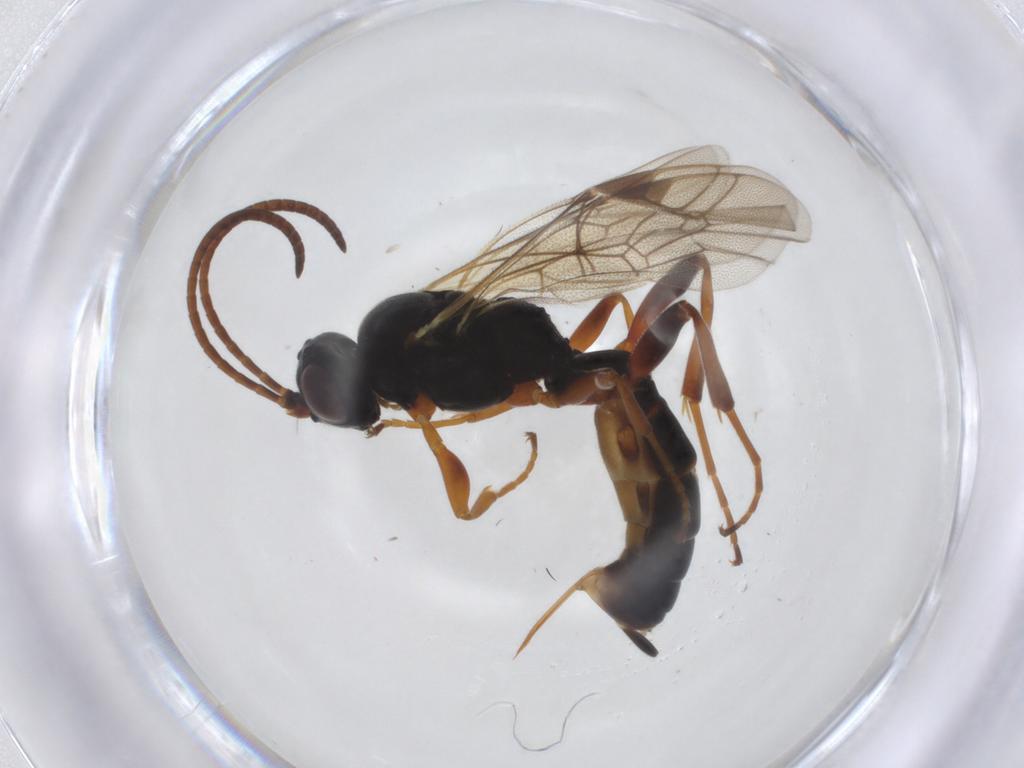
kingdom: Animalia
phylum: Arthropoda
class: Insecta
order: Hymenoptera
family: Ichneumonidae
